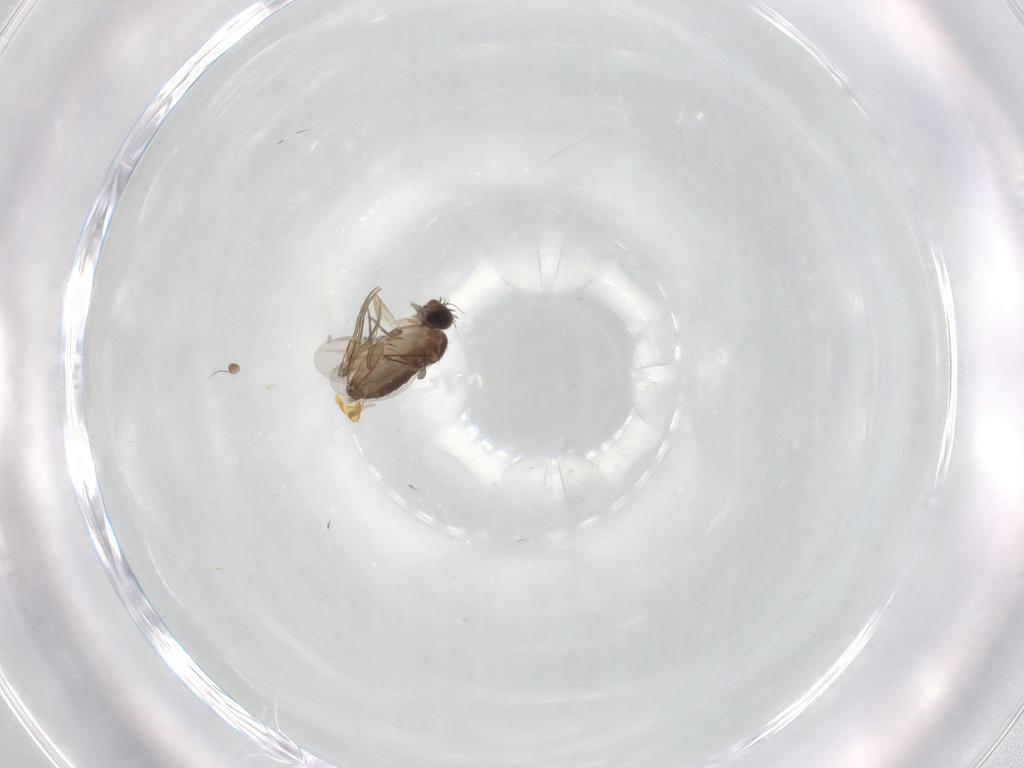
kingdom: Animalia
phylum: Arthropoda
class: Insecta
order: Diptera
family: Phoridae
